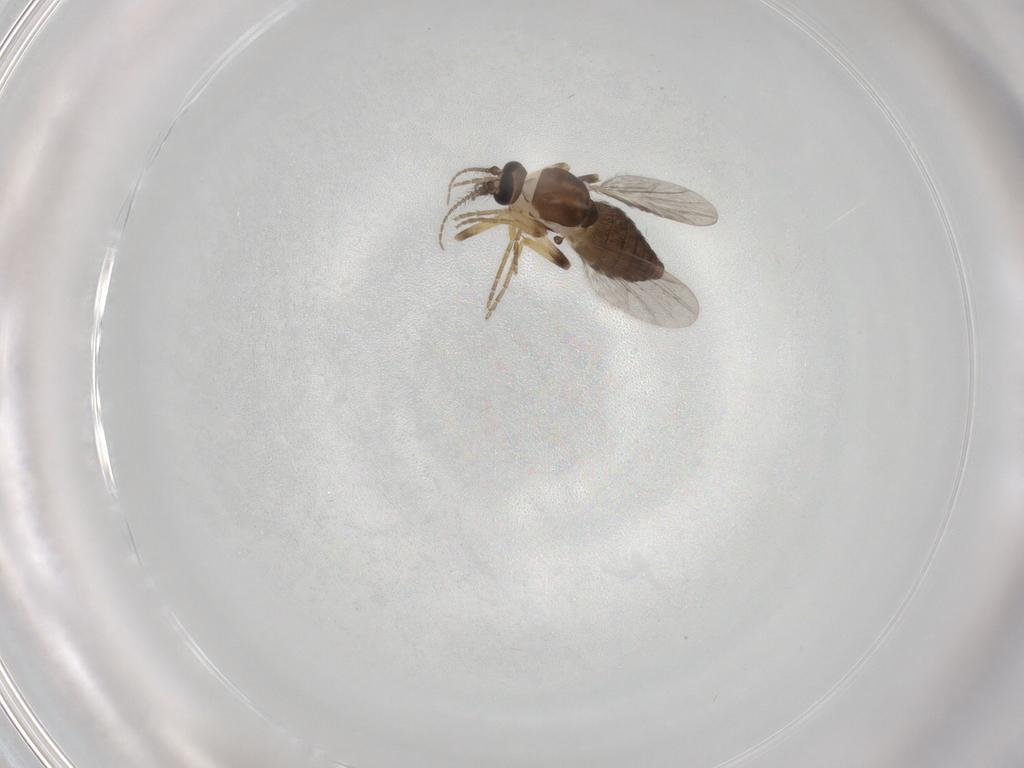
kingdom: Animalia
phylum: Arthropoda
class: Insecta
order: Diptera
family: Ceratopogonidae
